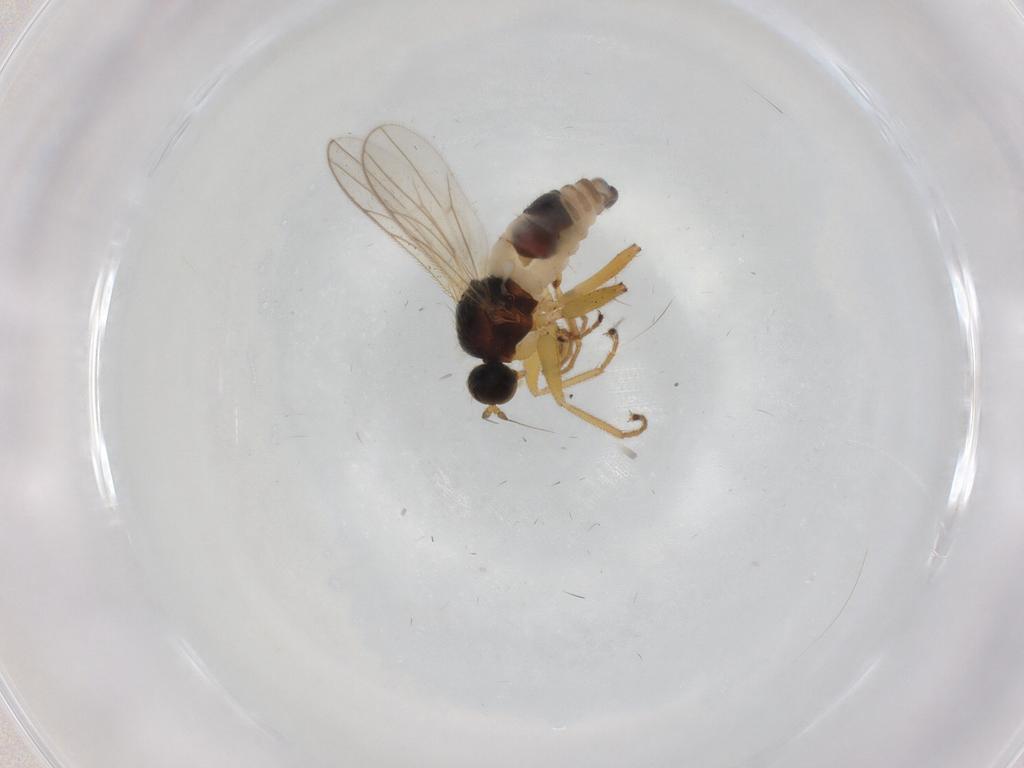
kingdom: Animalia
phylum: Arthropoda
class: Insecta
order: Diptera
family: Hybotidae
